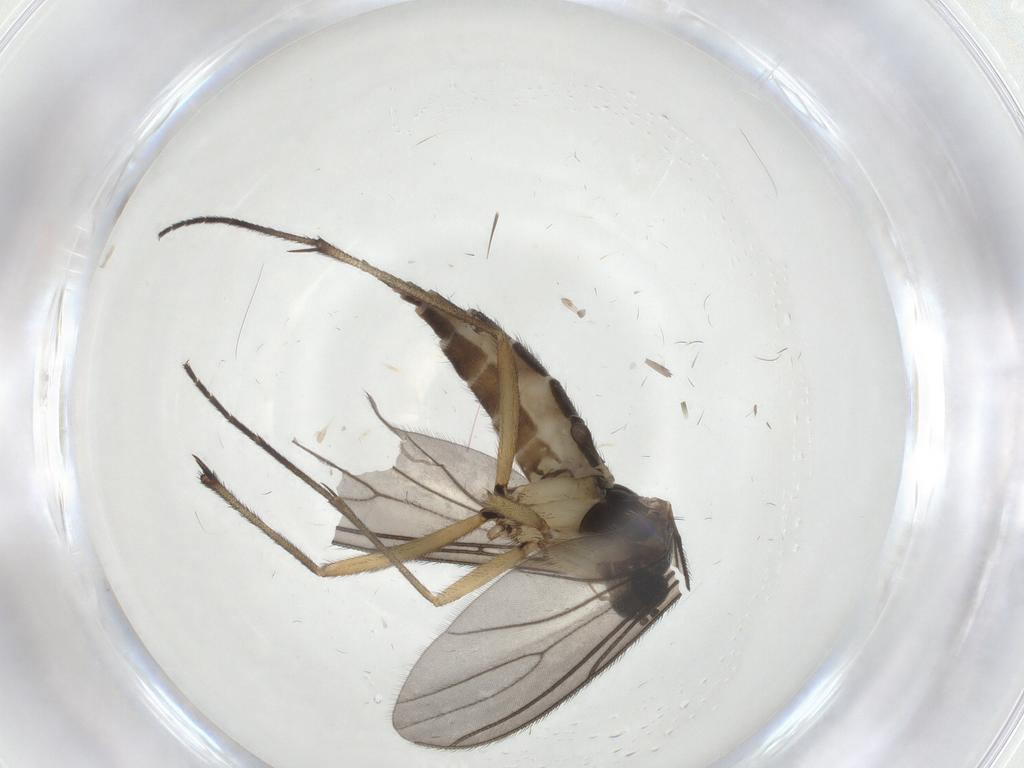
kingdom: Animalia
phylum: Arthropoda
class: Insecta
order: Diptera
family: Sciaridae
